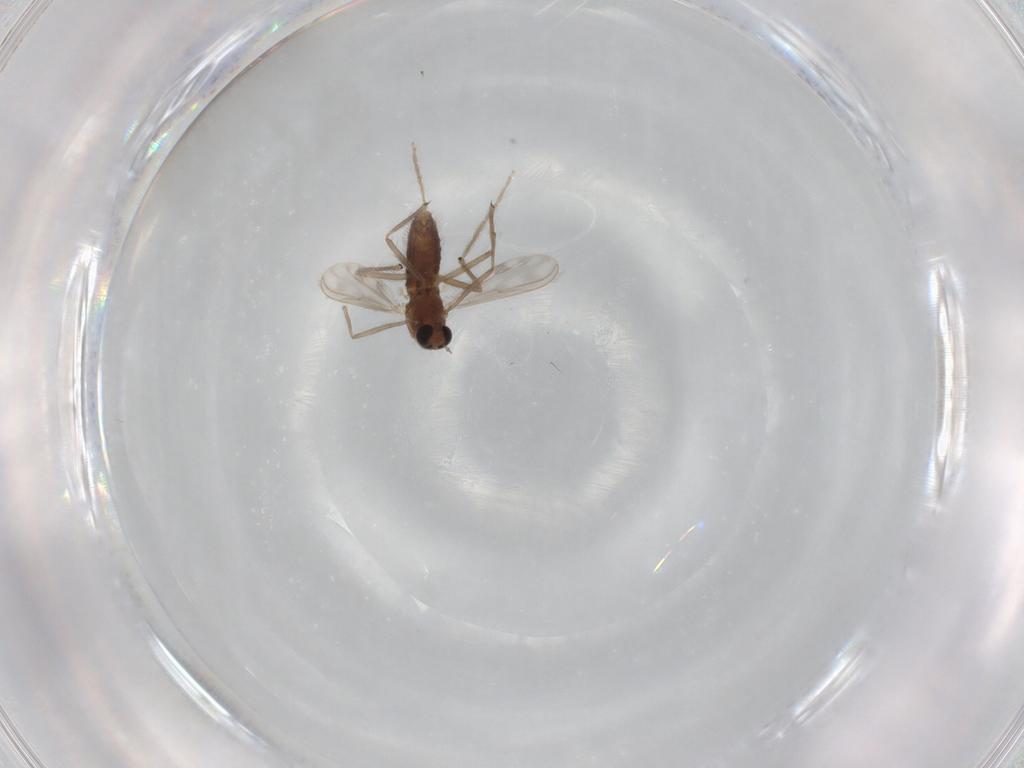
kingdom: Animalia
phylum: Arthropoda
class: Insecta
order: Diptera
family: Chironomidae
